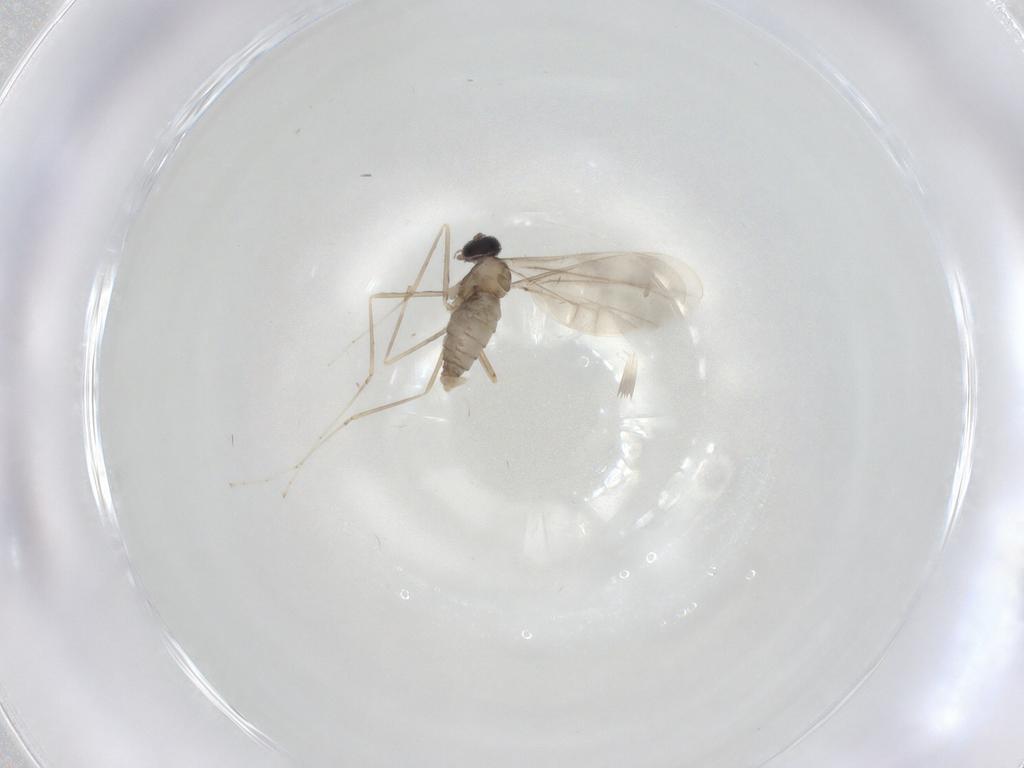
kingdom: Animalia
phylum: Arthropoda
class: Insecta
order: Diptera
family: Cecidomyiidae
